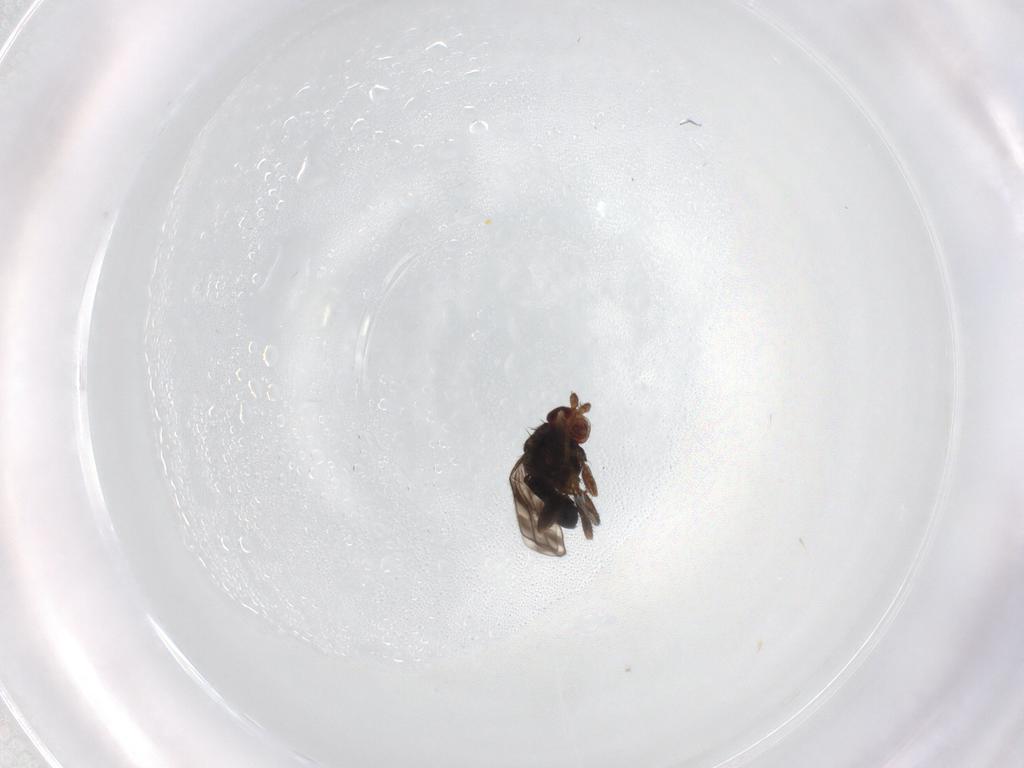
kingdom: Animalia
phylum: Arthropoda
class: Insecta
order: Diptera
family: Sphaeroceridae
